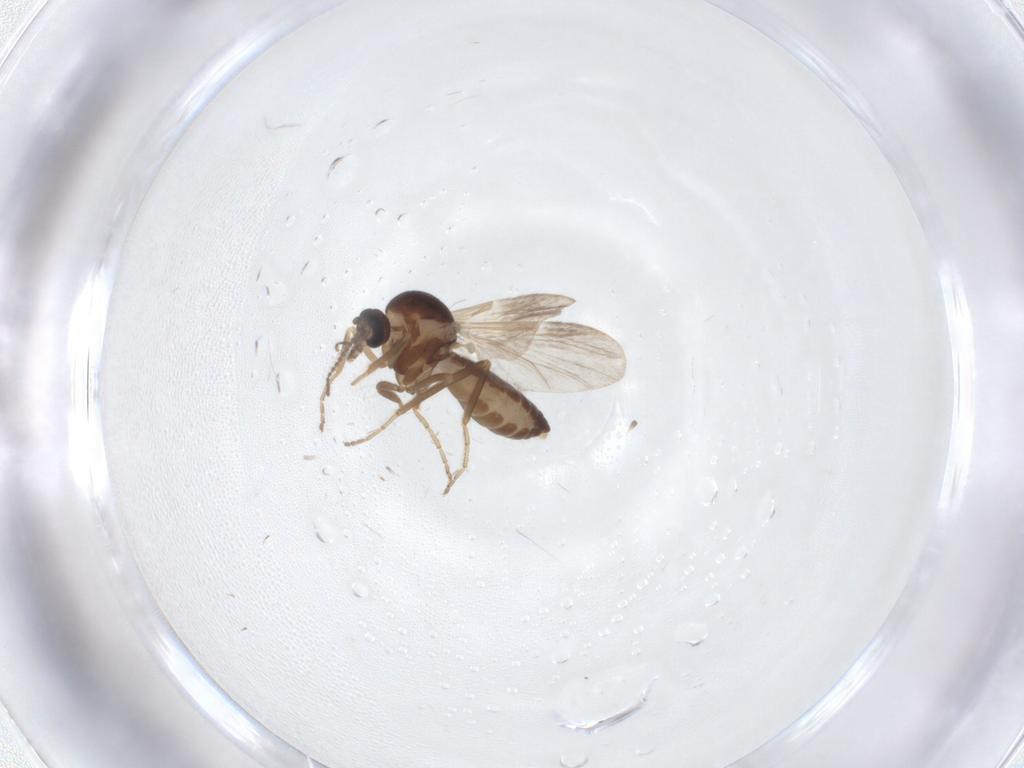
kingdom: Animalia
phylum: Arthropoda
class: Insecta
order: Diptera
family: Ceratopogonidae
